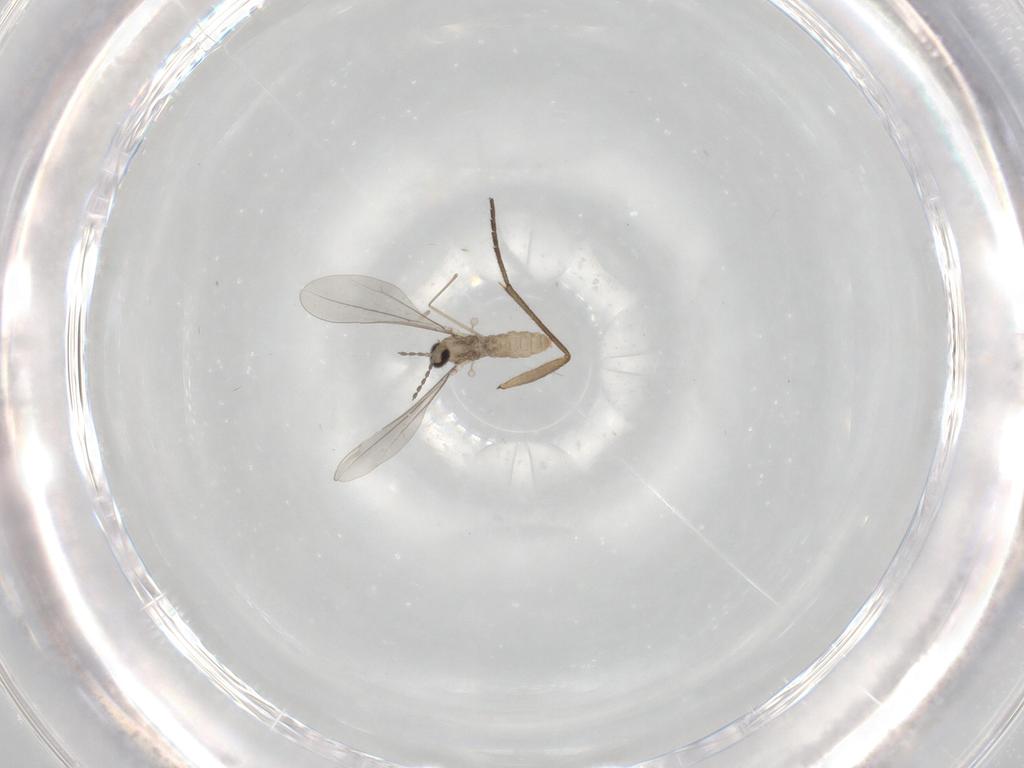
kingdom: Animalia
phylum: Arthropoda
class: Insecta
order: Diptera
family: Cecidomyiidae
